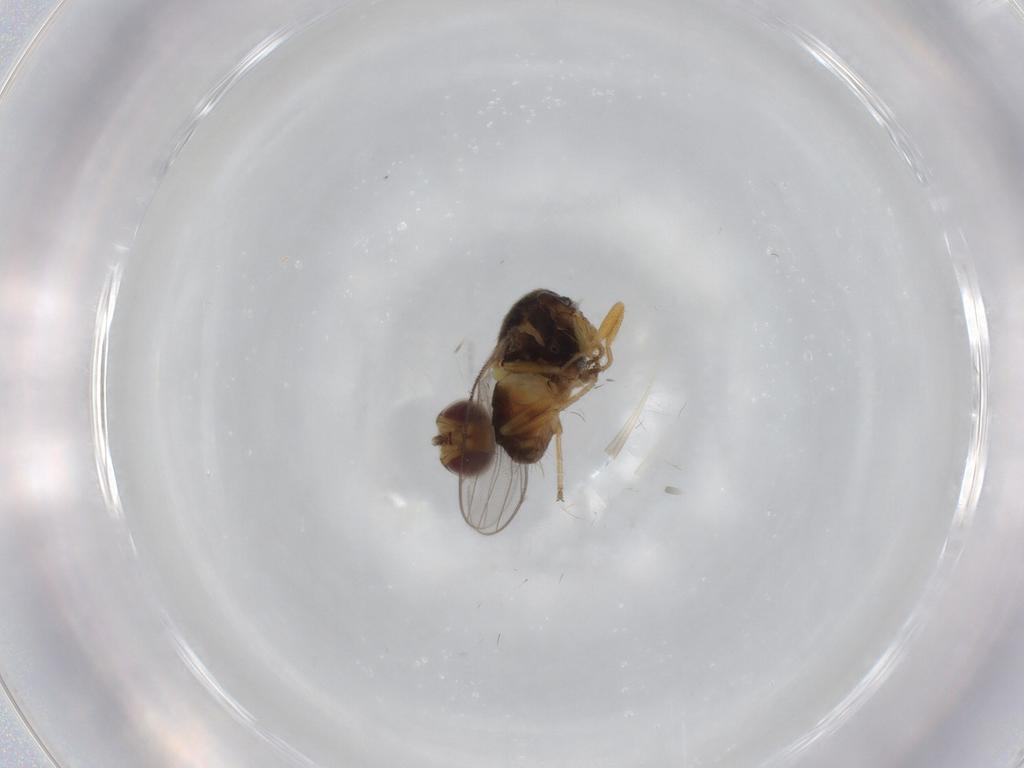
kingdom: Animalia
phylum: Arthropoda
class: Insecta
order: Diptera
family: Chloropidae
